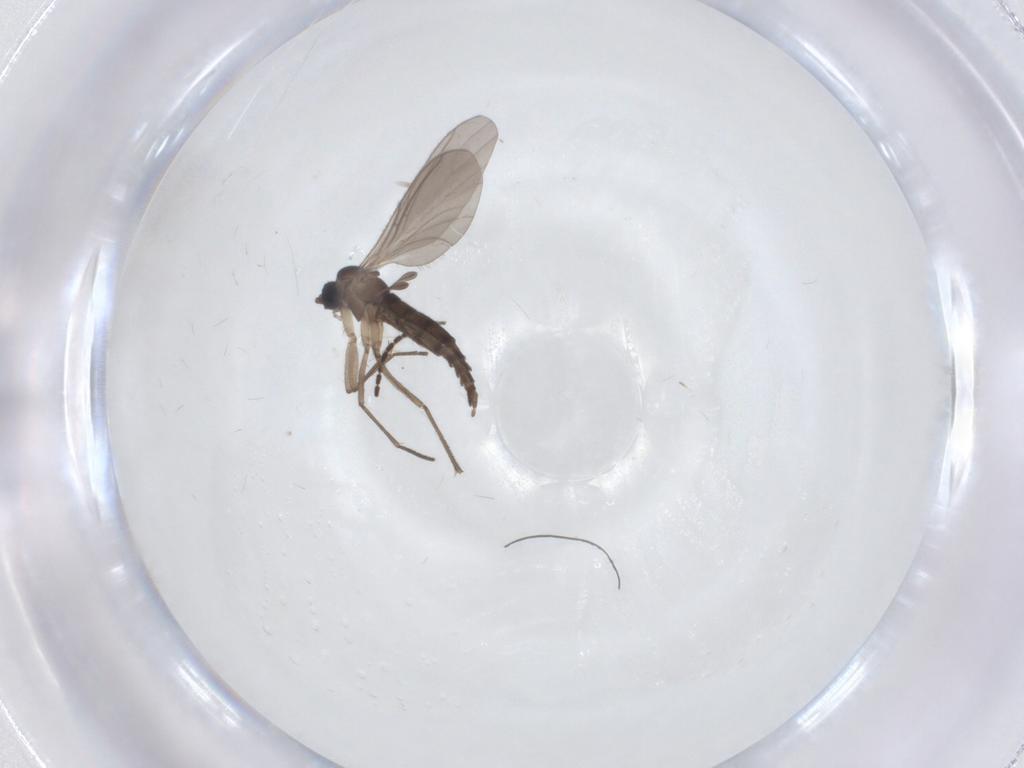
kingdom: Animalia
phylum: Arthropoda
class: Insecta
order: Diptera
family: Sciaridae
